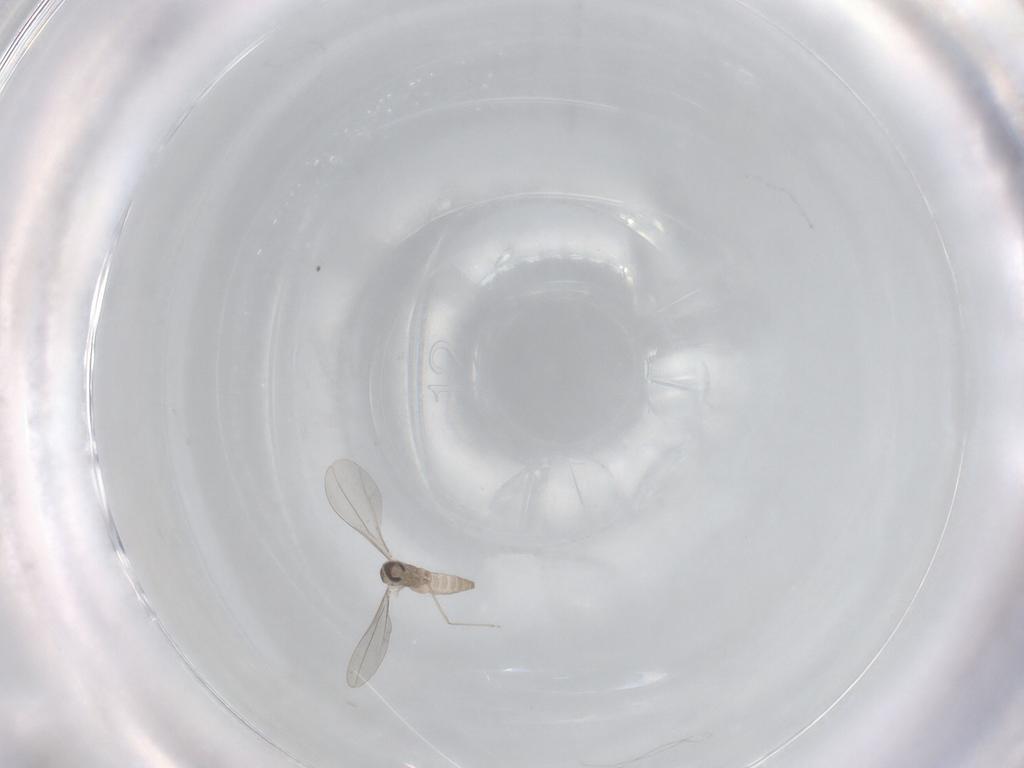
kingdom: Animalia
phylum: Arthropoda
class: Insecta
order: Diptera
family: Cecidomyiidae
